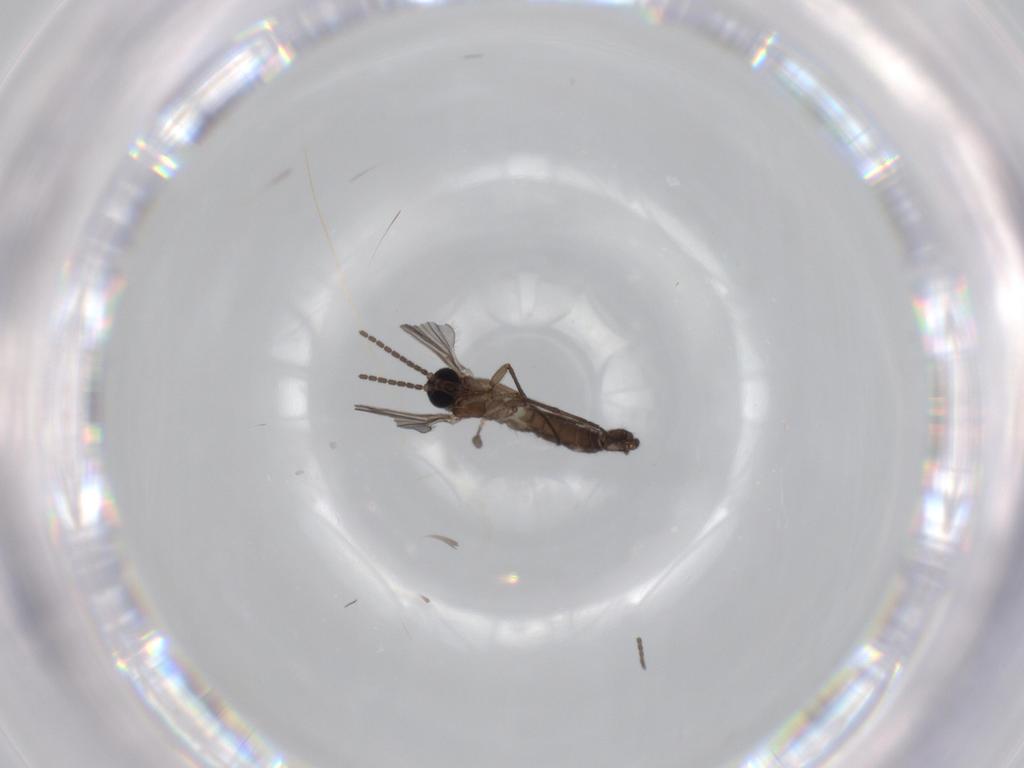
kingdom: Animalia
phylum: Arthropoda
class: Insecta
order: Diptera
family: Sciaridae
